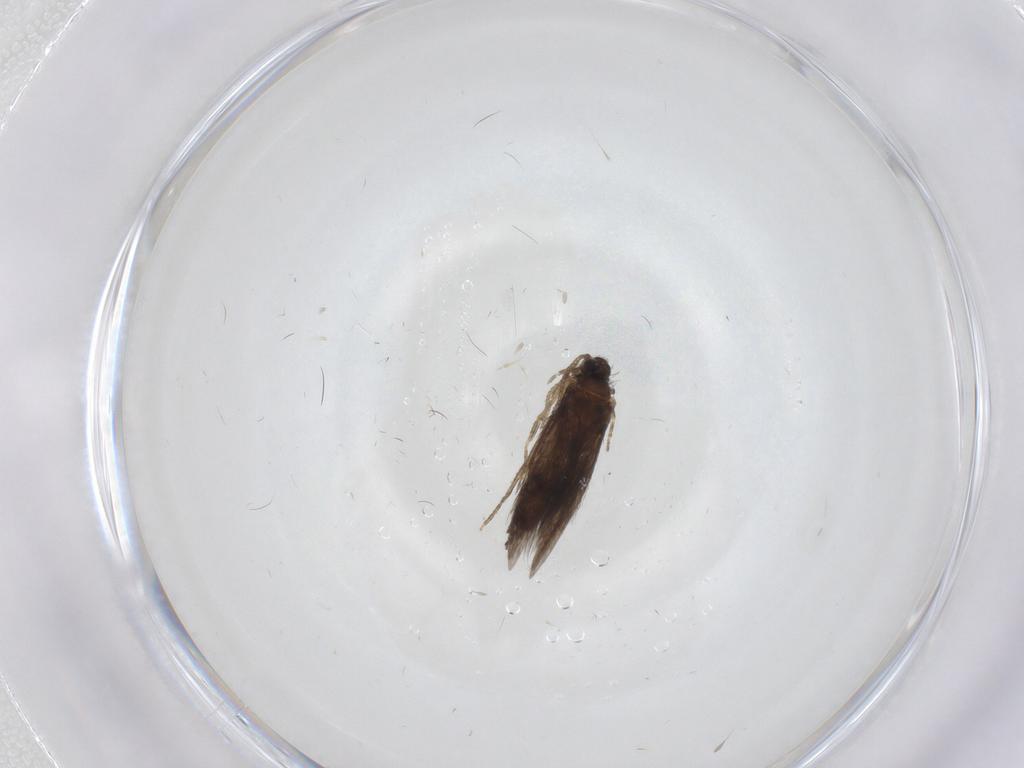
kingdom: Animalia
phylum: Arthropoda
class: Insecta
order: Trichoptera
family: Hydroptilidae
